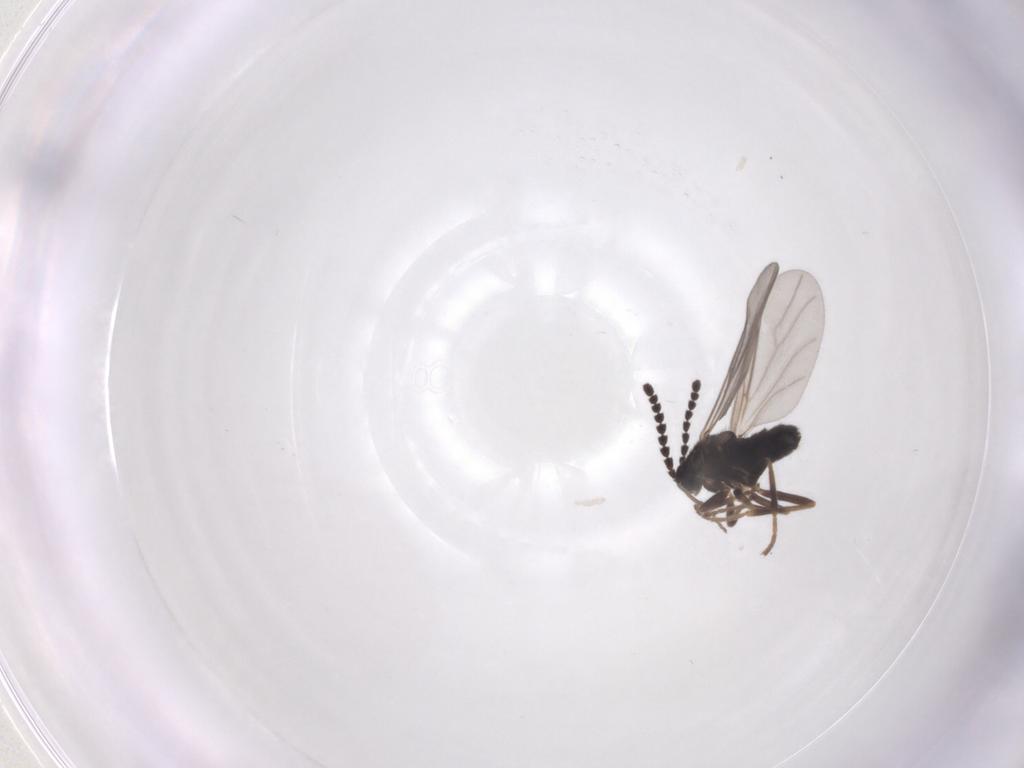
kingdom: Animalia
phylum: Arthropoda
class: Insecta
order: Diptera
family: Scatopsidae
